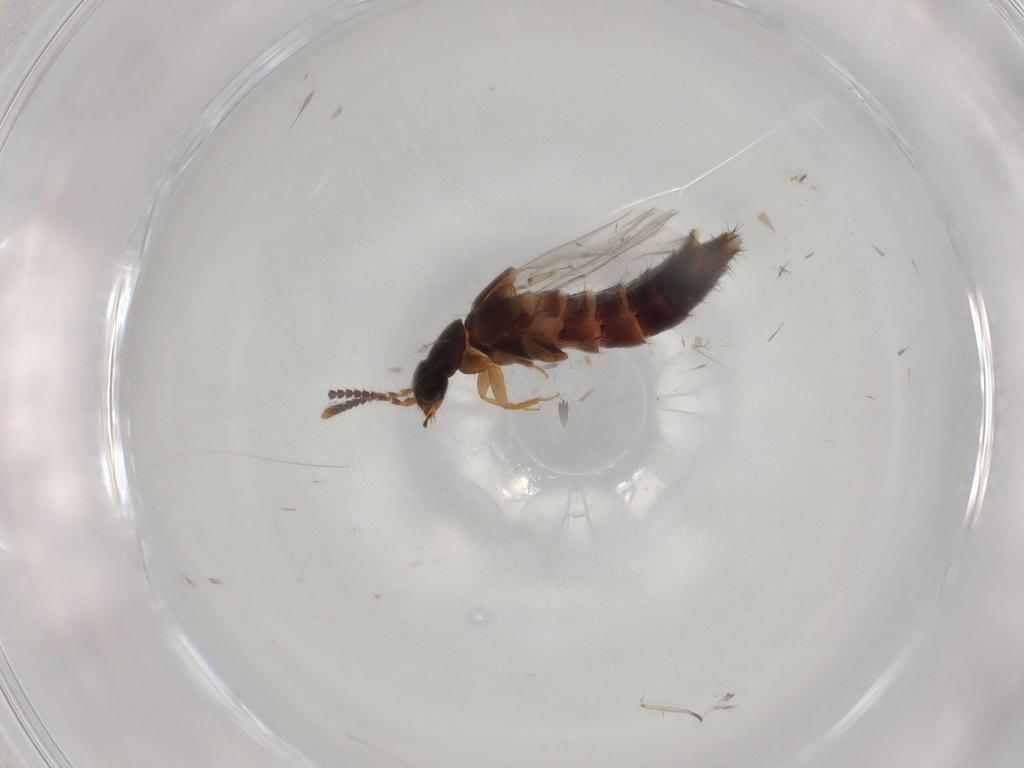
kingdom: Animalia
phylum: Arthropoda
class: Insecta
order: Coleoptera
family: Staphylinidae
